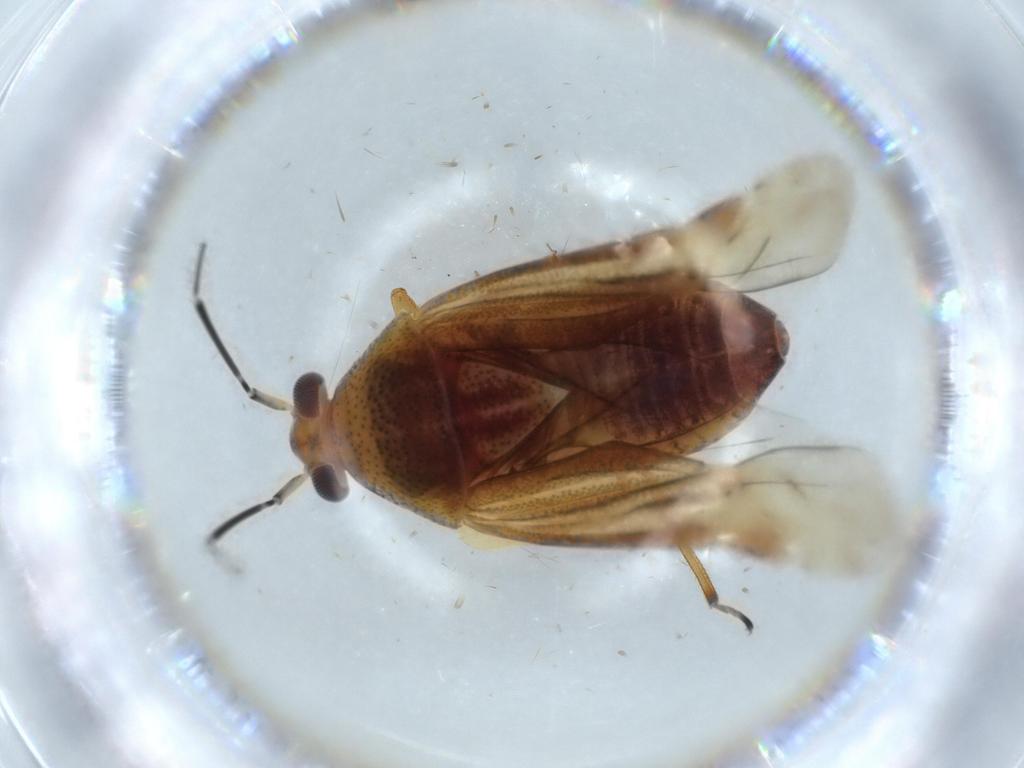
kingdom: Animalia
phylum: Arthropoda
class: Insecta
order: Hemiptera
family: Miridae
